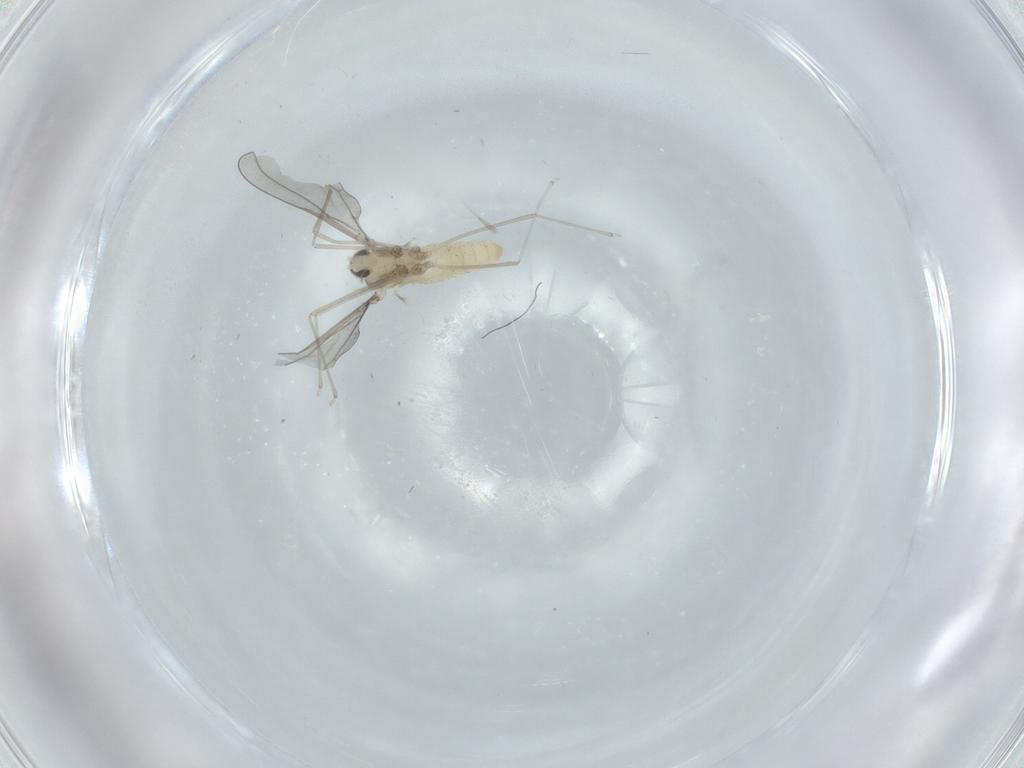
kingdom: Animalia
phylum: Arthropoda
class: Insecta
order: Diptera
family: Cecidomyiidae
